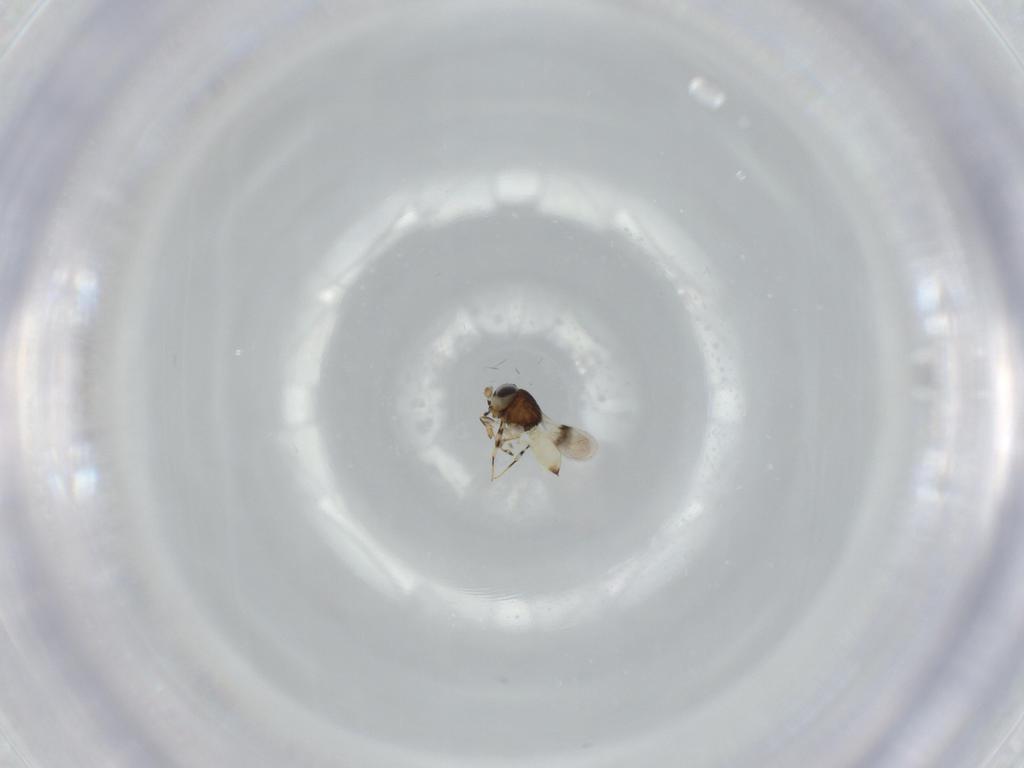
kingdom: Animalia
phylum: Arthropoda
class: Insecta
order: Hymenoptera
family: Scelionidae
